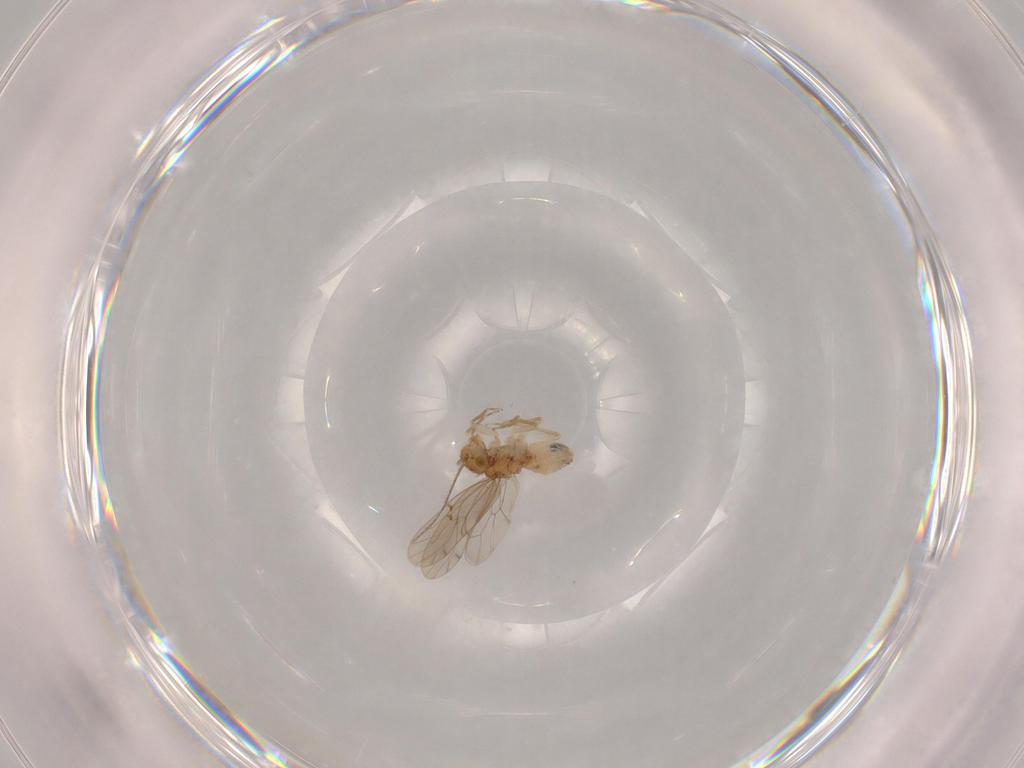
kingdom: Animalia
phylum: Arthropoda
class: Insecta
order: Psocodea
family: Ectopsocidae
